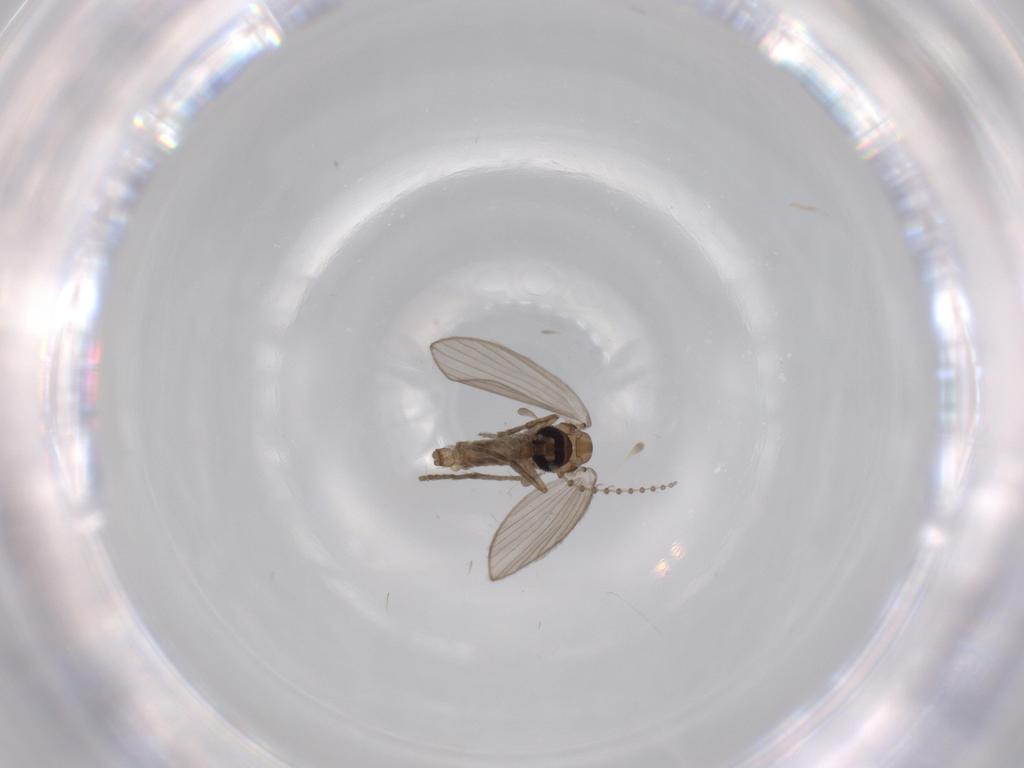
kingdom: Animalia
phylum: Arthropoda
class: Insecta
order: Diptera
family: Psychodidae
